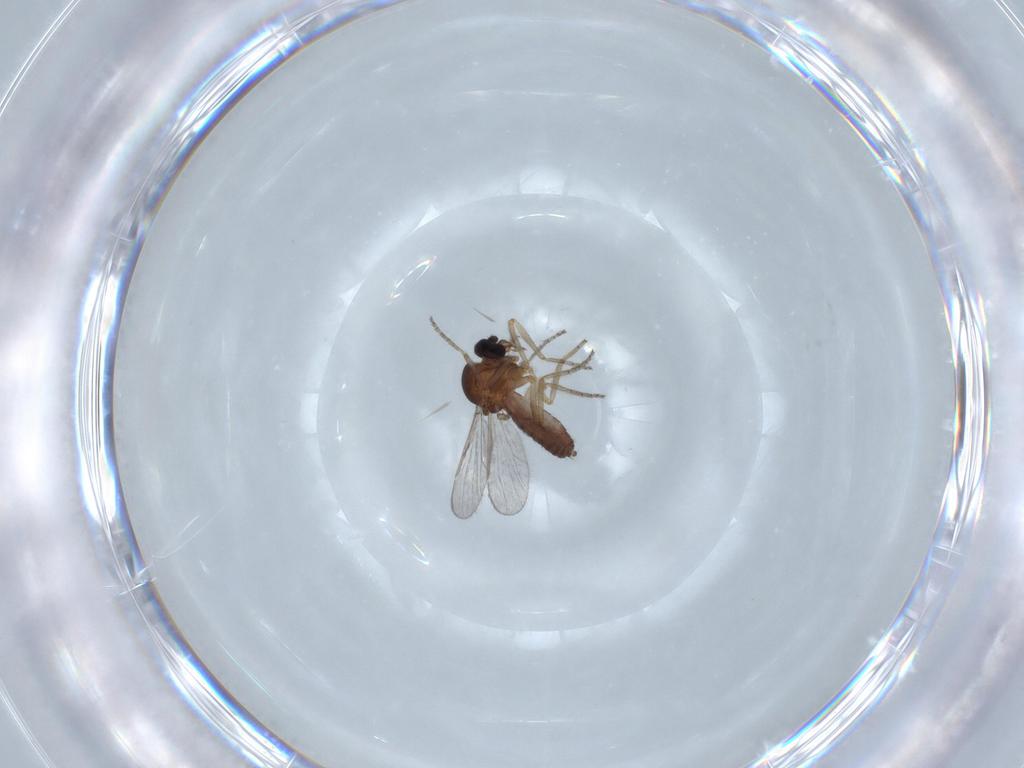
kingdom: Animalia
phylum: Arthropoda
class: Insecta
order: Diptera
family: Ceratopogonidae
